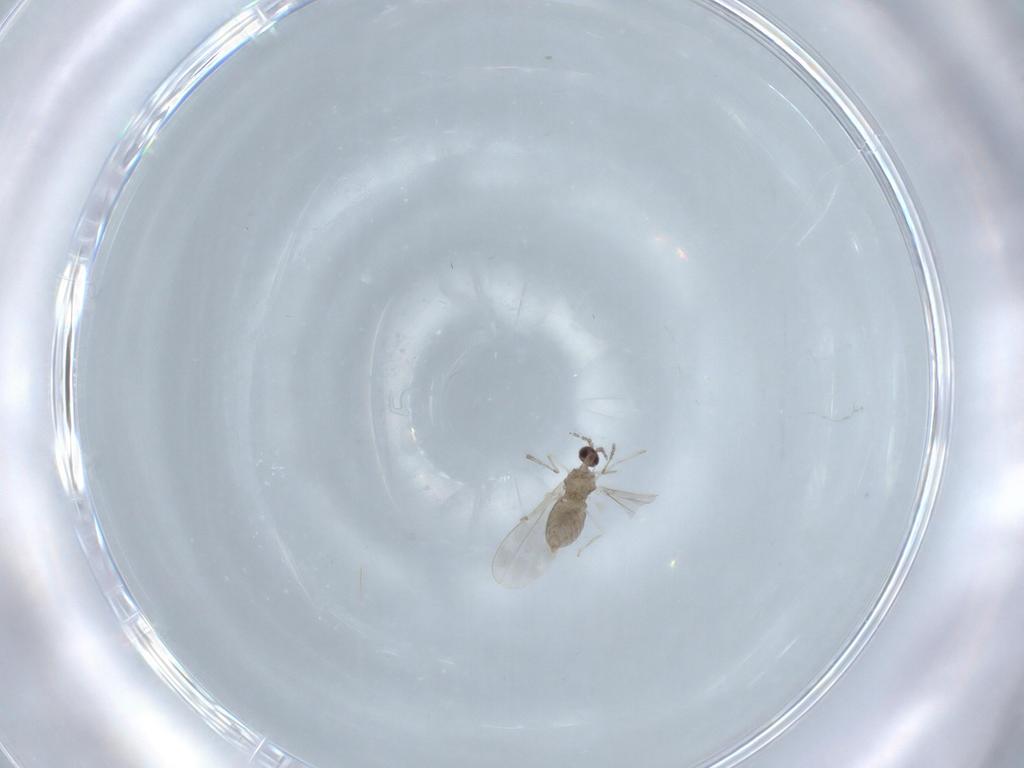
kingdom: Animalia
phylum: Arthropoda
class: Insecta
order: Diptera
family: Cecidomyiidae
